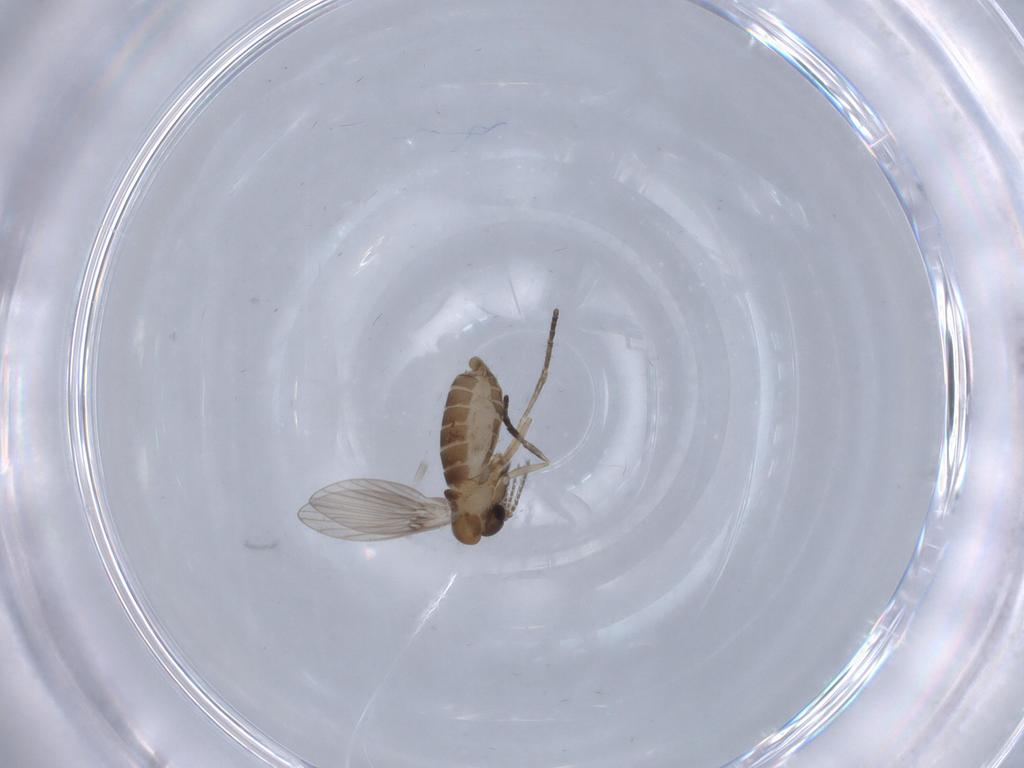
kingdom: Animalia
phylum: Arthropoda
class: Insecta
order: Diptera
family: Psychodidae
